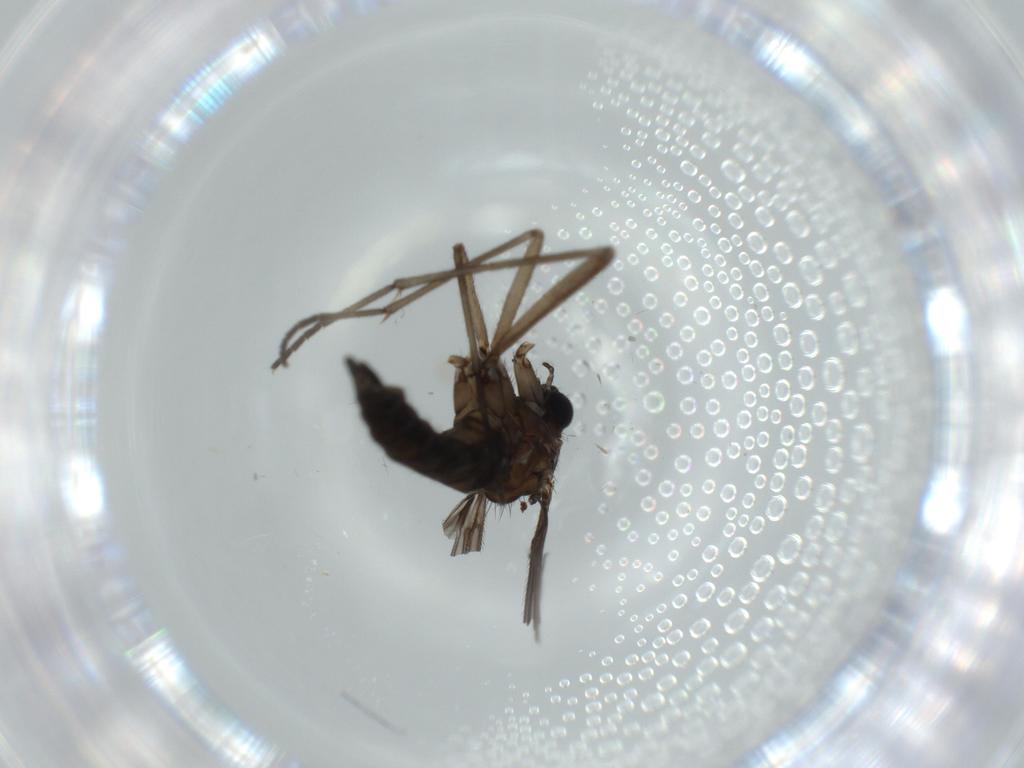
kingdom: Animalia
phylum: Arthropoda
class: Insecta
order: Diptera
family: Sciaridae
